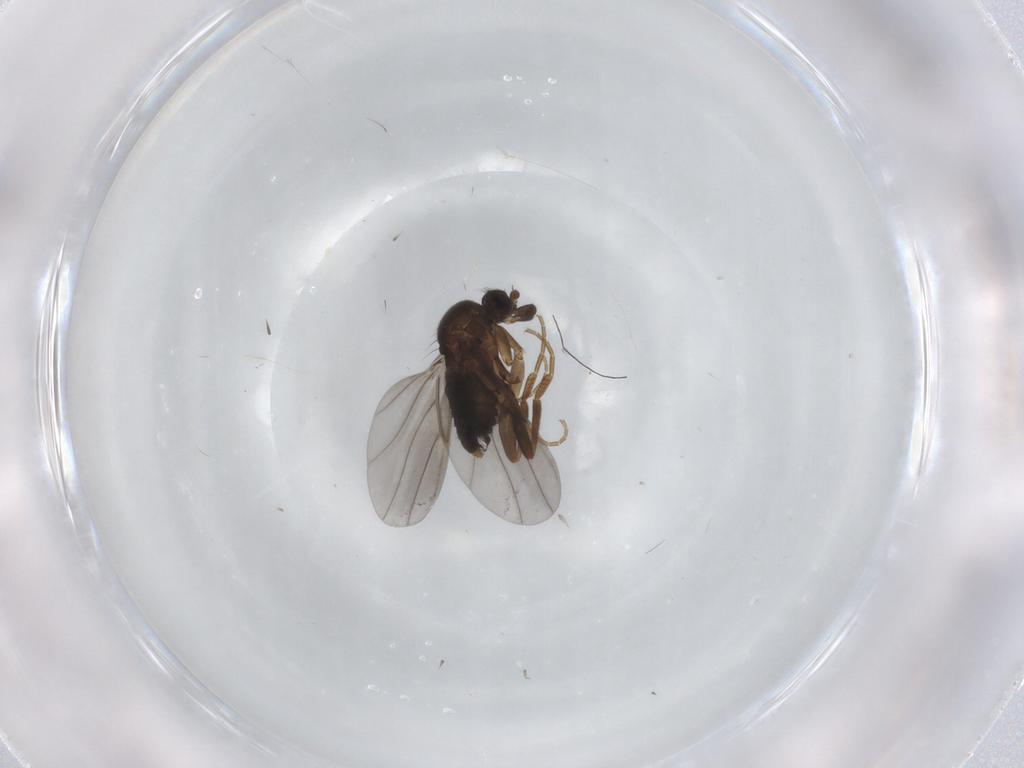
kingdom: Animalia
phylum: Arthropoda
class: Insecta
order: Diptera
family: Phoridae
